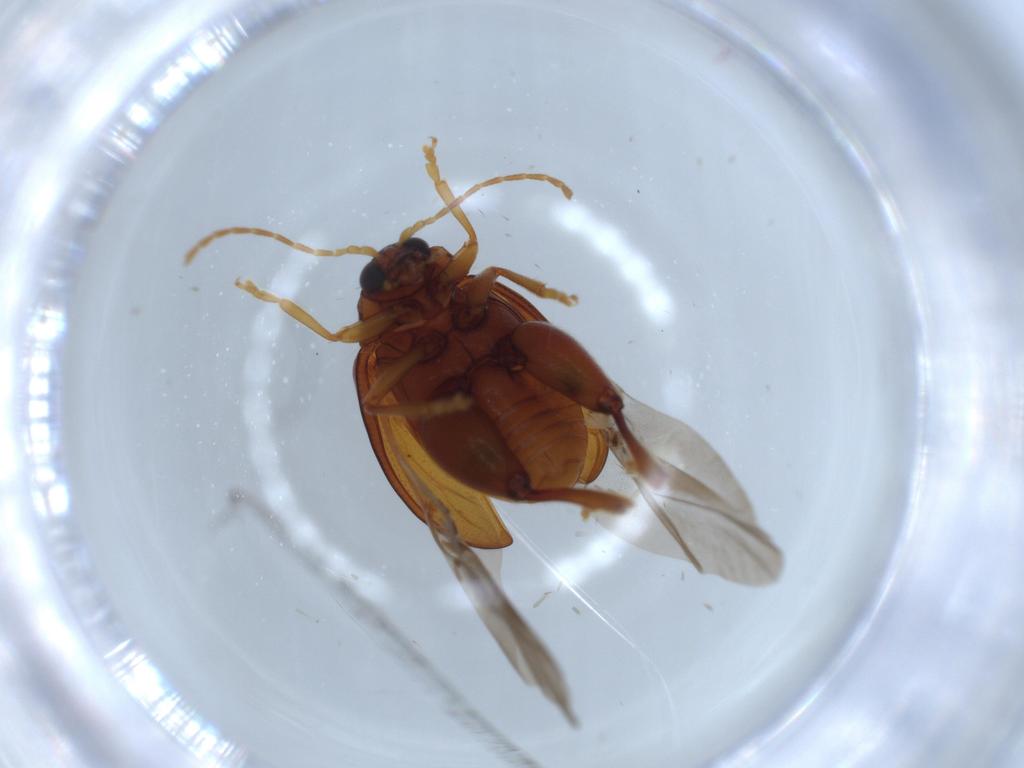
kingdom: Animalia
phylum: Arthropoda
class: Insecta
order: Coleoptera
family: Chrysomelidae
